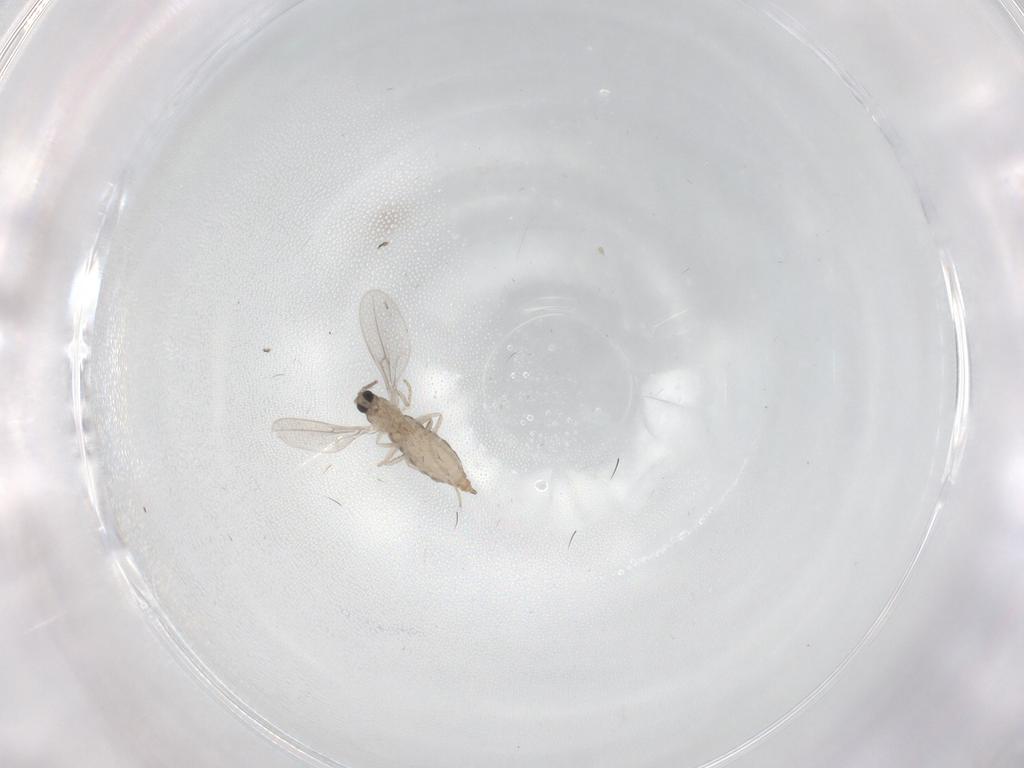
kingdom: Animalia
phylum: Arthropoda
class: Insecta
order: Diptera
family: Cecidomyiidae
